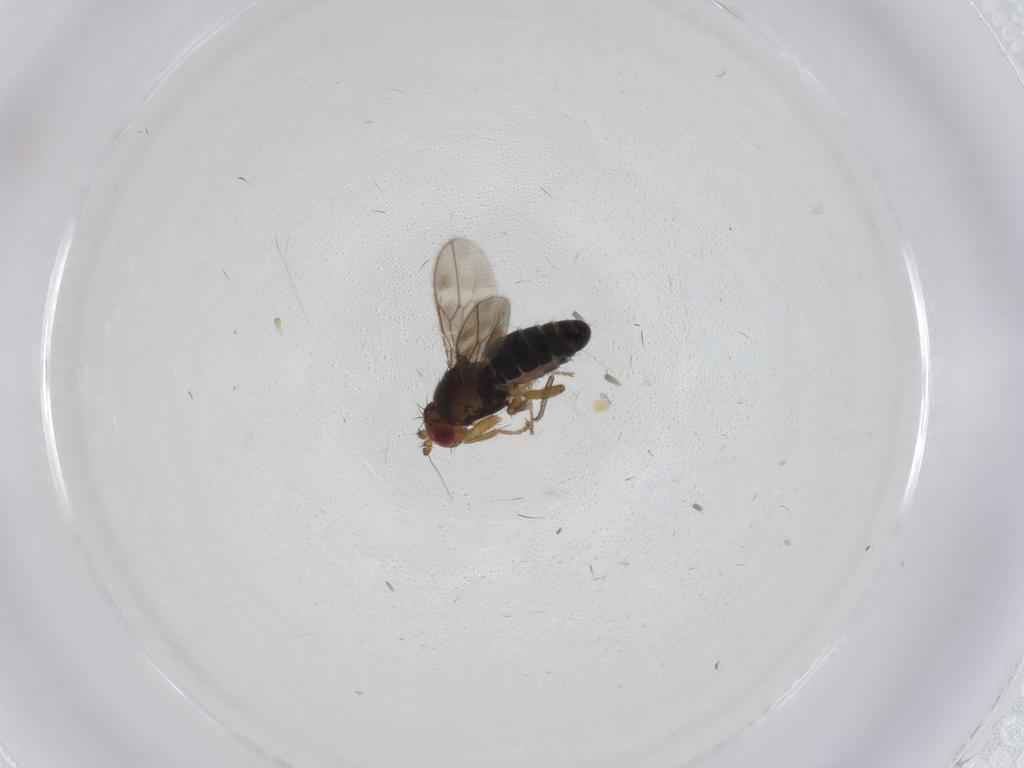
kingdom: Animalia
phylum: Arthropoda
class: Insecta
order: Diptera
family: Sphaeroceridae
